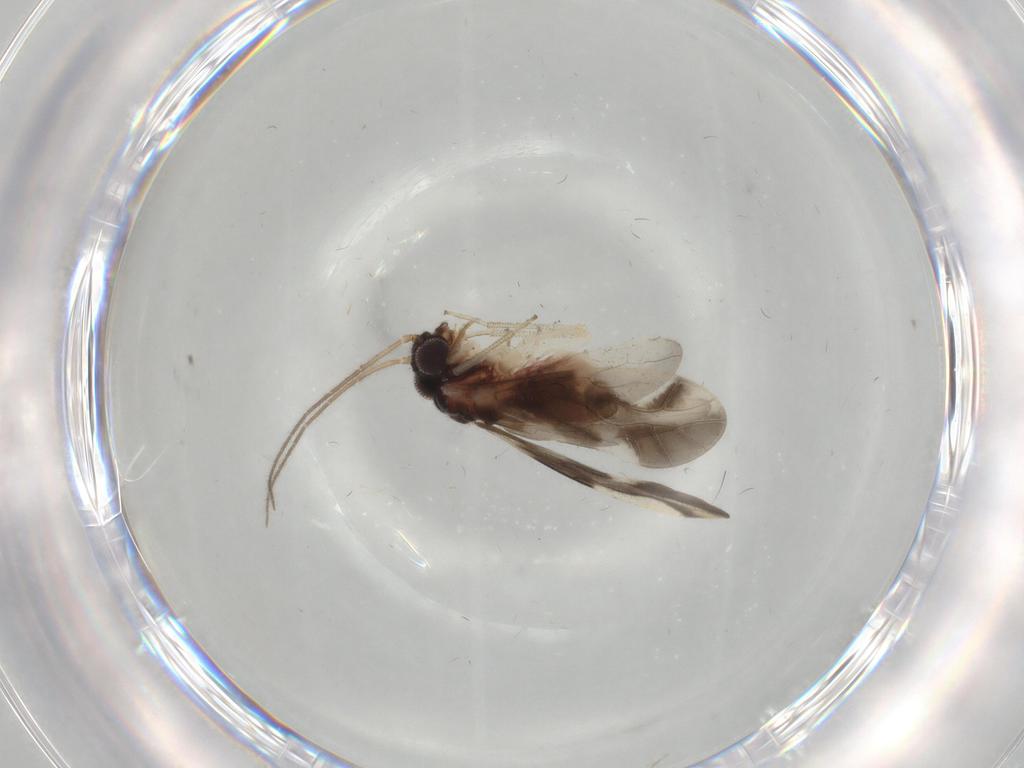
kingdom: Animalia
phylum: Arthropoda
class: Insecta
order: Psocodea
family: Caeciliusidae
